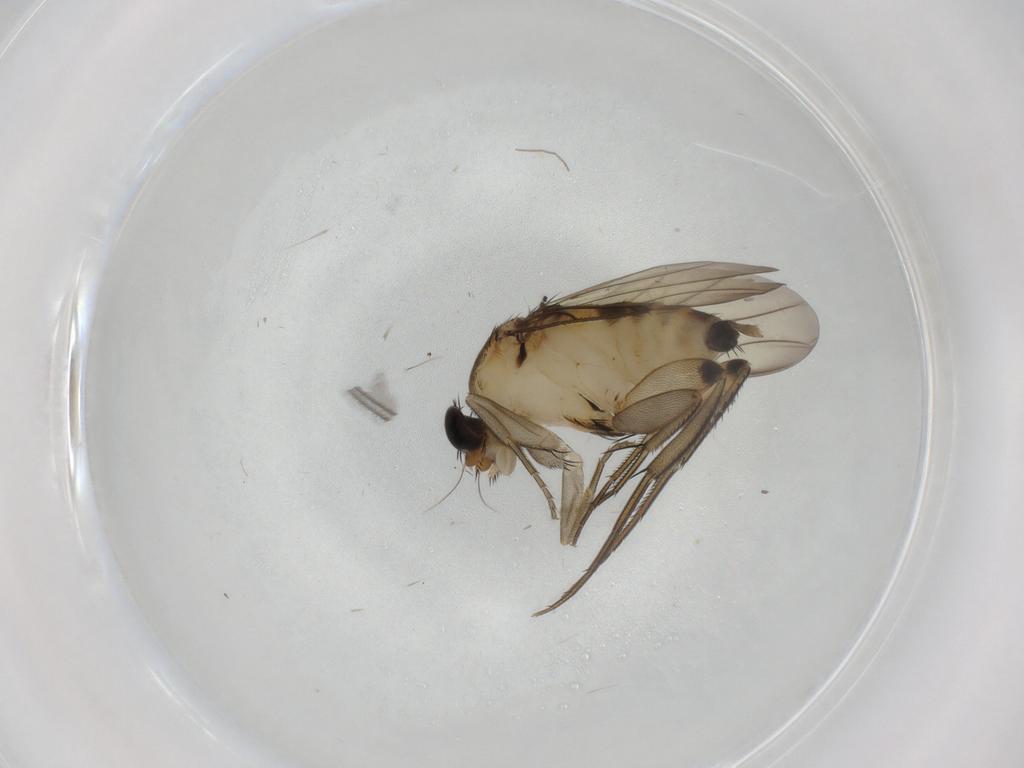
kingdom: Animalia
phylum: Arthropoda
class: Insecta
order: Diptera
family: Phoridae
